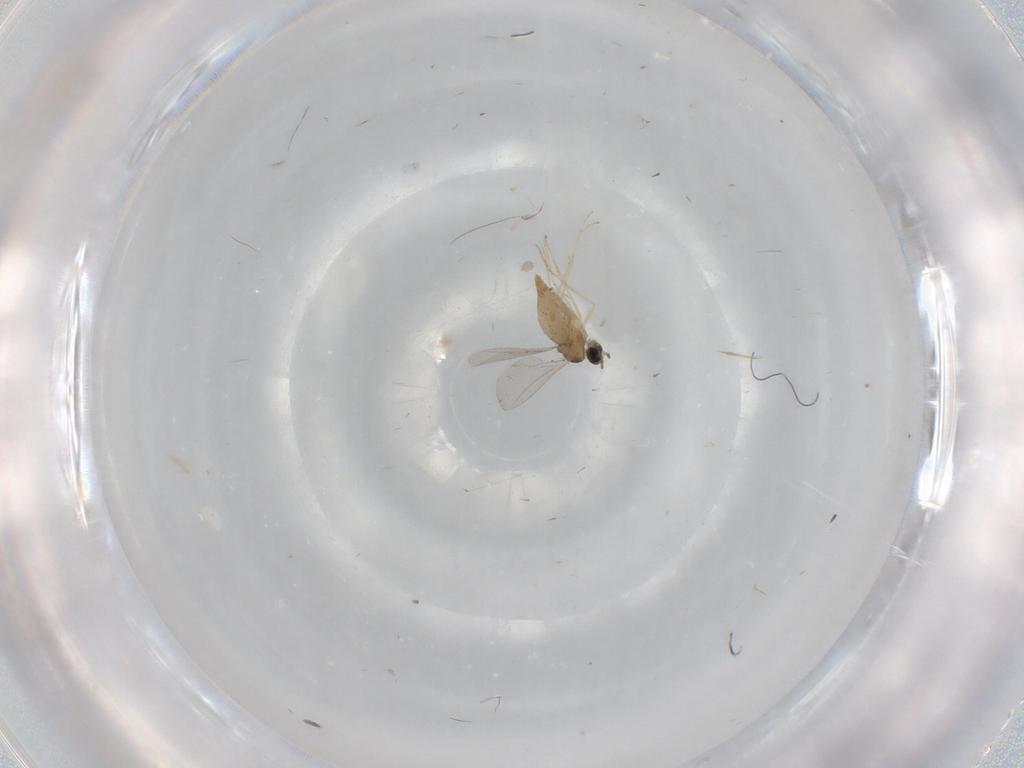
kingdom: Animalia
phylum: Arthropoda
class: Insecta
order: Diptera
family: Cecidomyiidae
